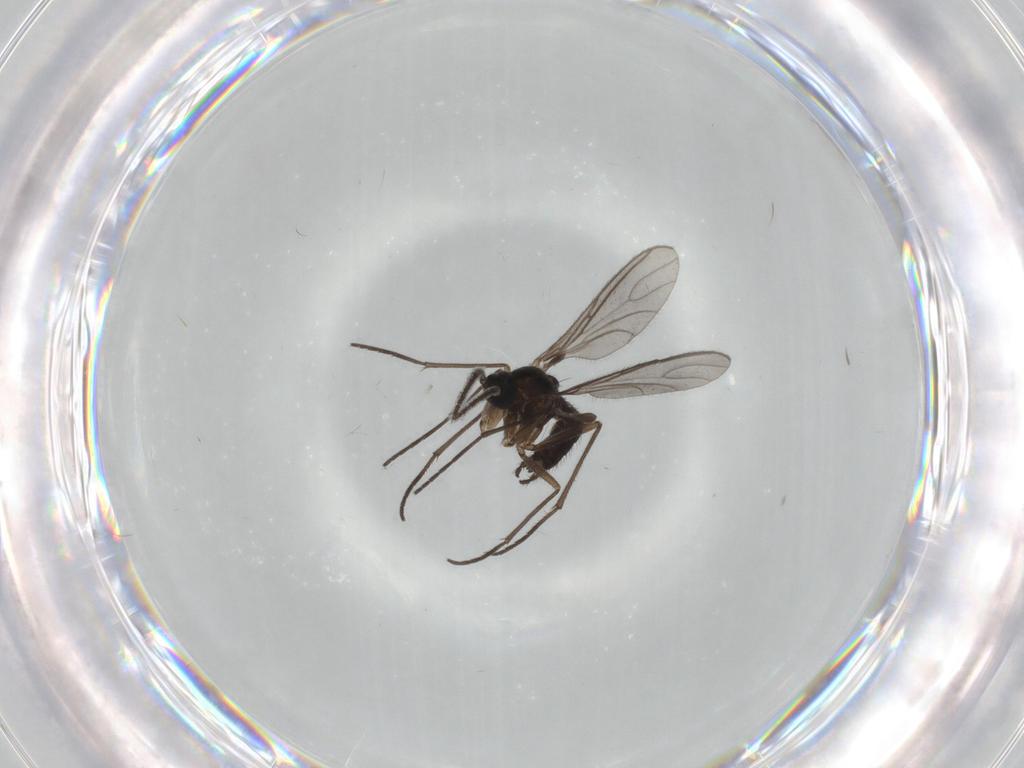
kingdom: Animalia
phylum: Arthropoda
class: Insecta
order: Diptera
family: Sciaridae
